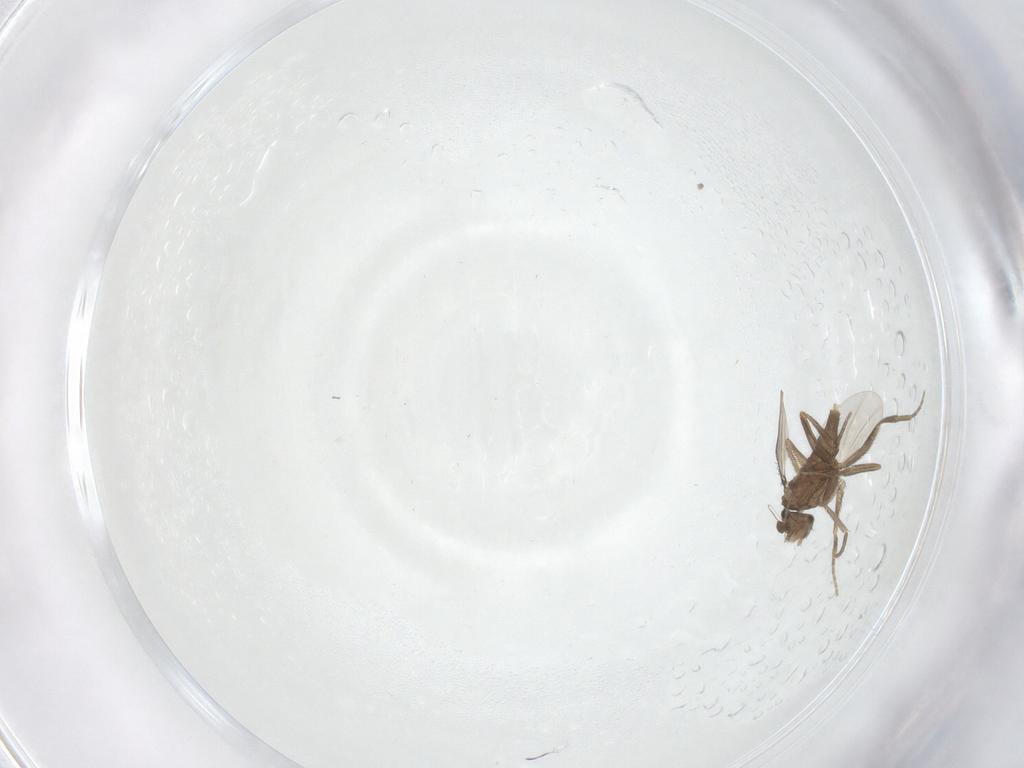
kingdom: Animalia
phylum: Arthropoda
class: Insecta
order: Diptera
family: Phoridae
